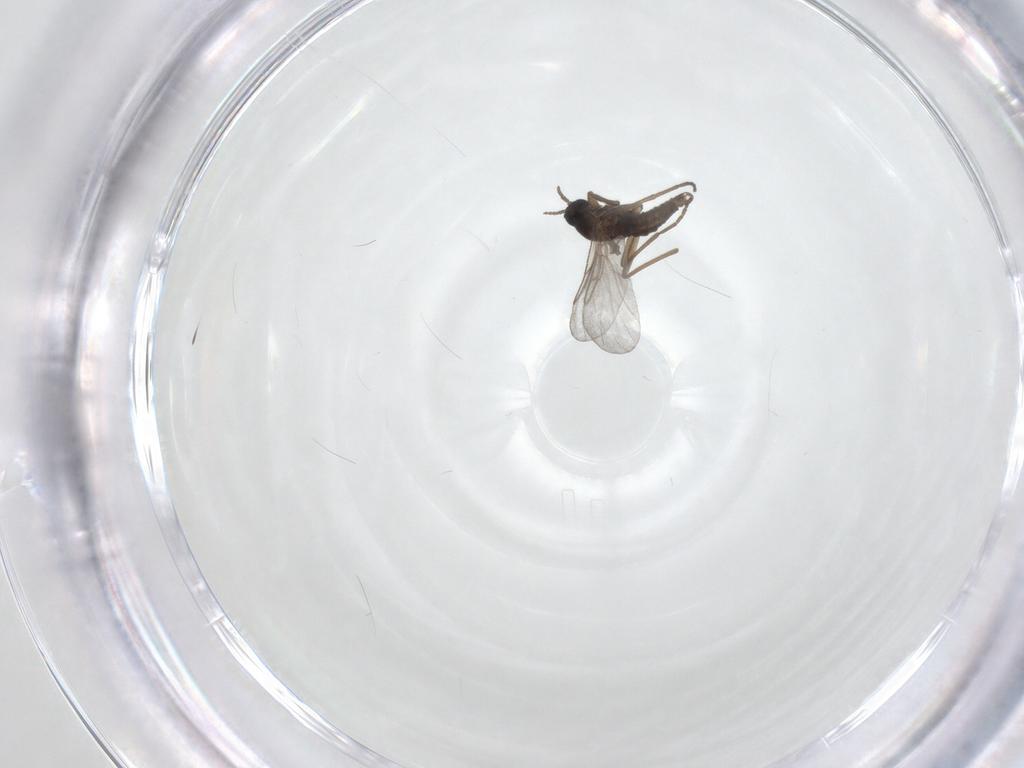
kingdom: Animalia
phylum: Arthropoda
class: Insecta
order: Diptera
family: Cecidomyiidae
